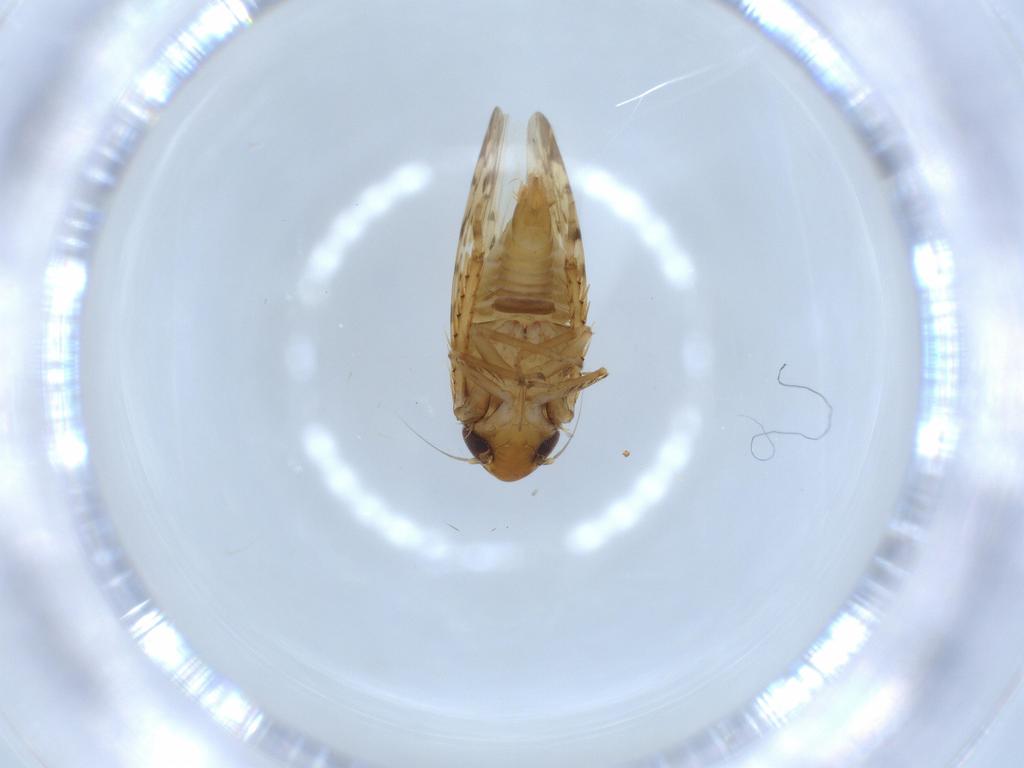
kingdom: Animalia
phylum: Arthropoda
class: Insecta
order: Hemiptera
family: Cicadellidae
